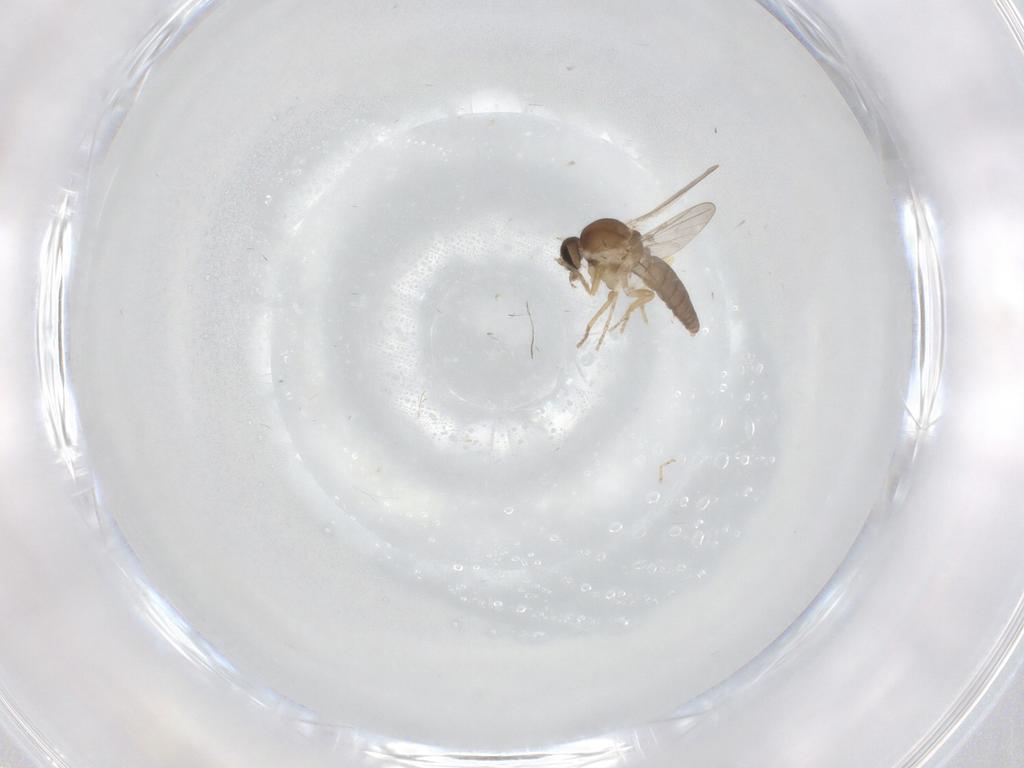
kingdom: Animalia
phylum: Arthropoda
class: Insecta
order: Diptera
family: Ceratopogonidae
